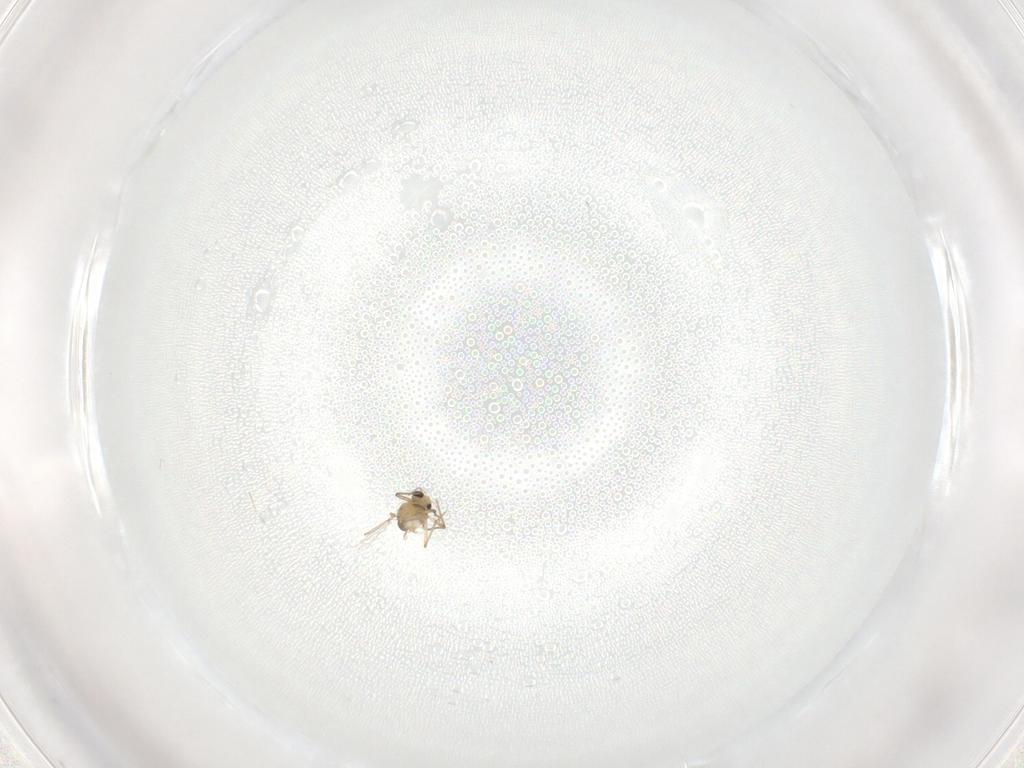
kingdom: Animalia
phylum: Arthropoda
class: Insecta
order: Diptera
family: Chironomidae
